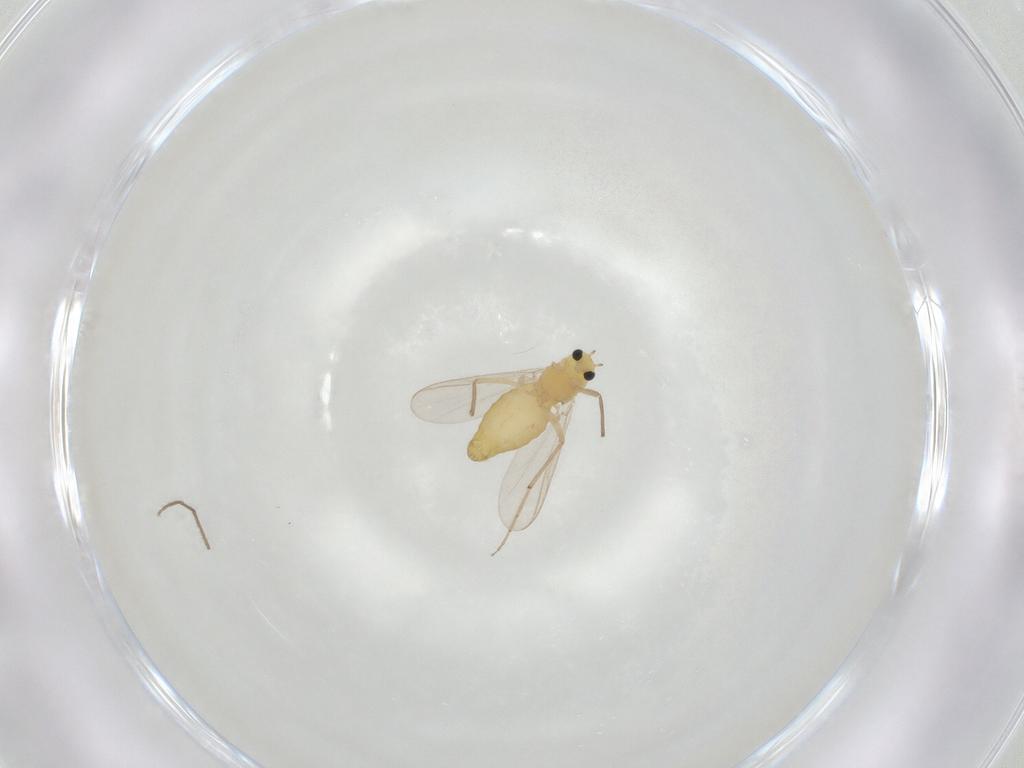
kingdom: Animalia
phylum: Arthropoda
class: Insecta
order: Diptera
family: Chironomidae
